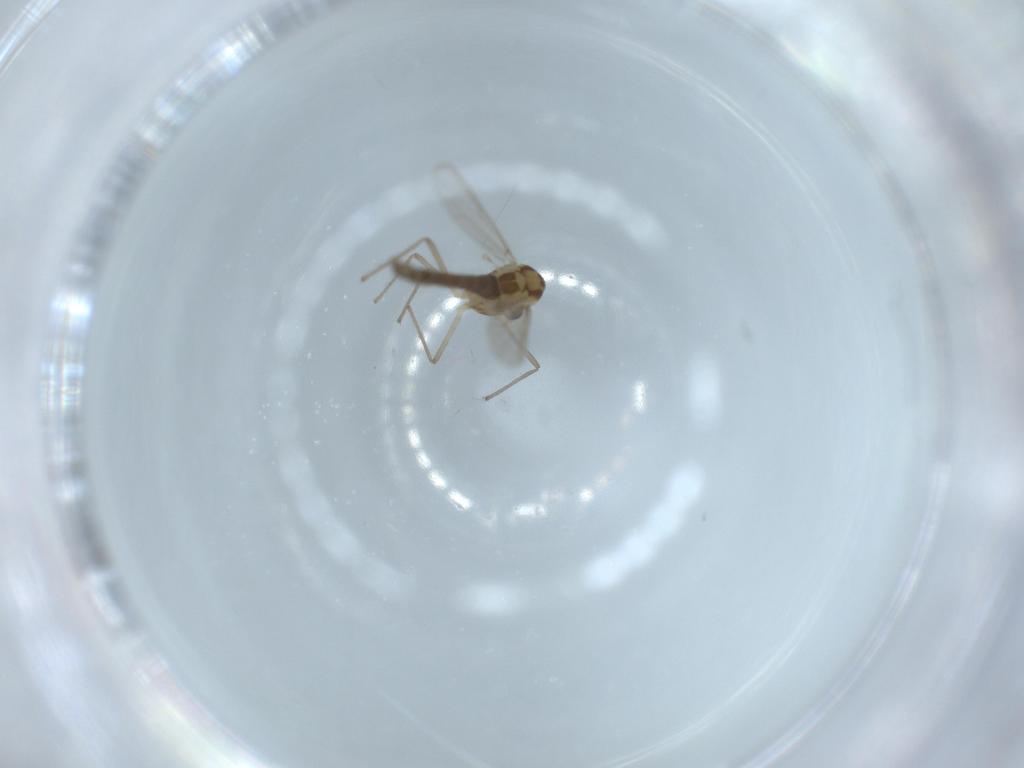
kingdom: Animalia
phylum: Arthropoda
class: Insecta
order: Diptera
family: Chironomidae
